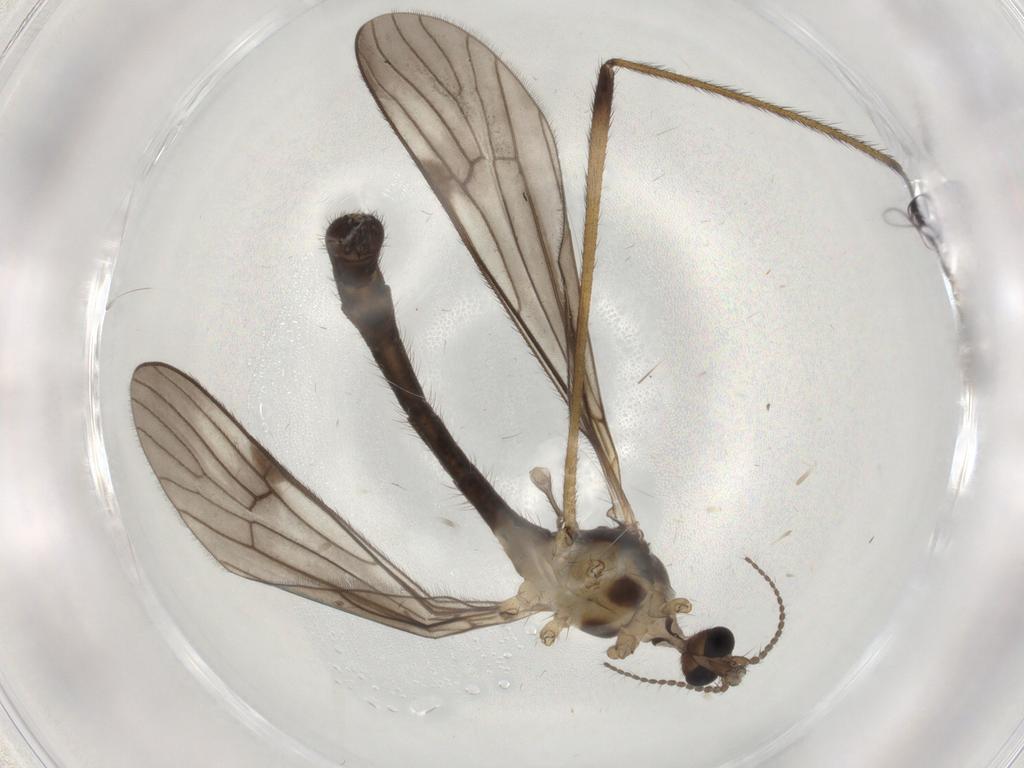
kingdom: Animalia
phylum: Arthropoda
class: Insecta
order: Diptera
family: Limoniidae
